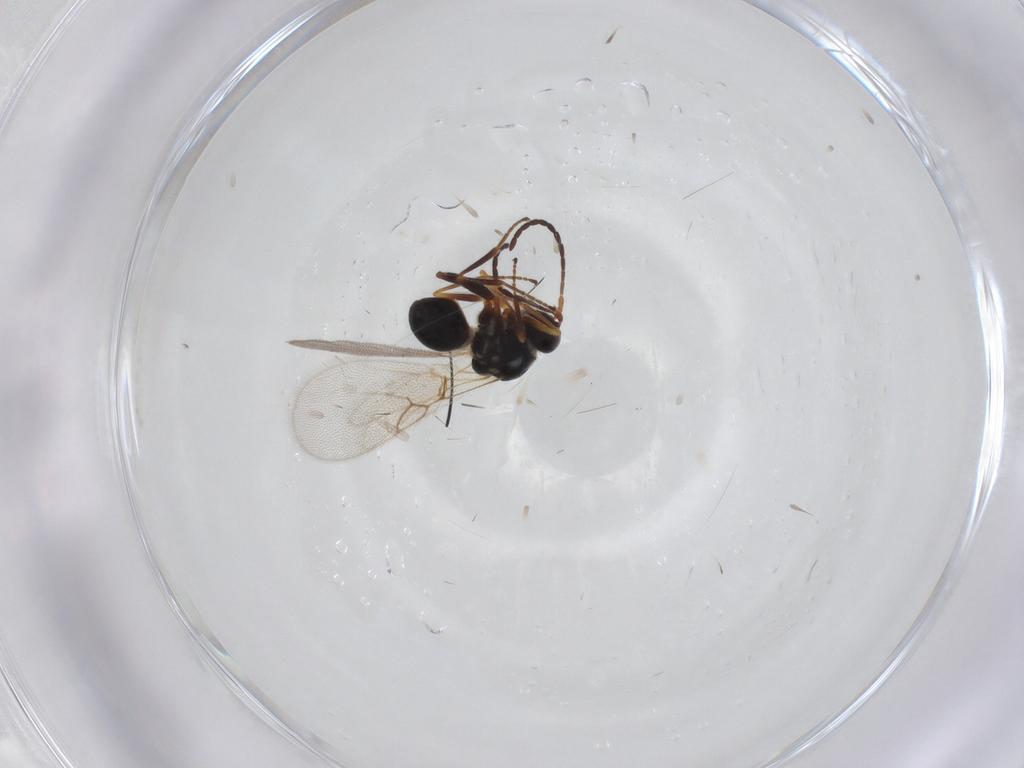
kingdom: Animalia
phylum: Arthropoda
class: Insecta
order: Hymenoptera
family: Figitidae
